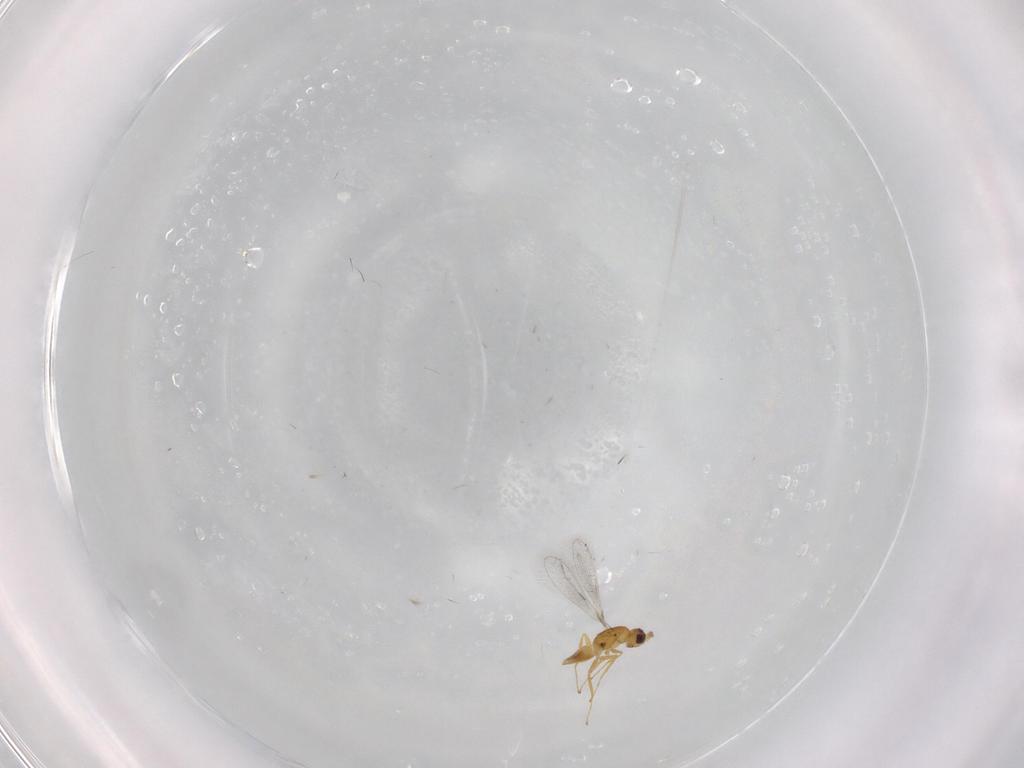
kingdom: Animalia
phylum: Arthropoda
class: Insecta
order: Hymenoptera
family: Mymaridae
